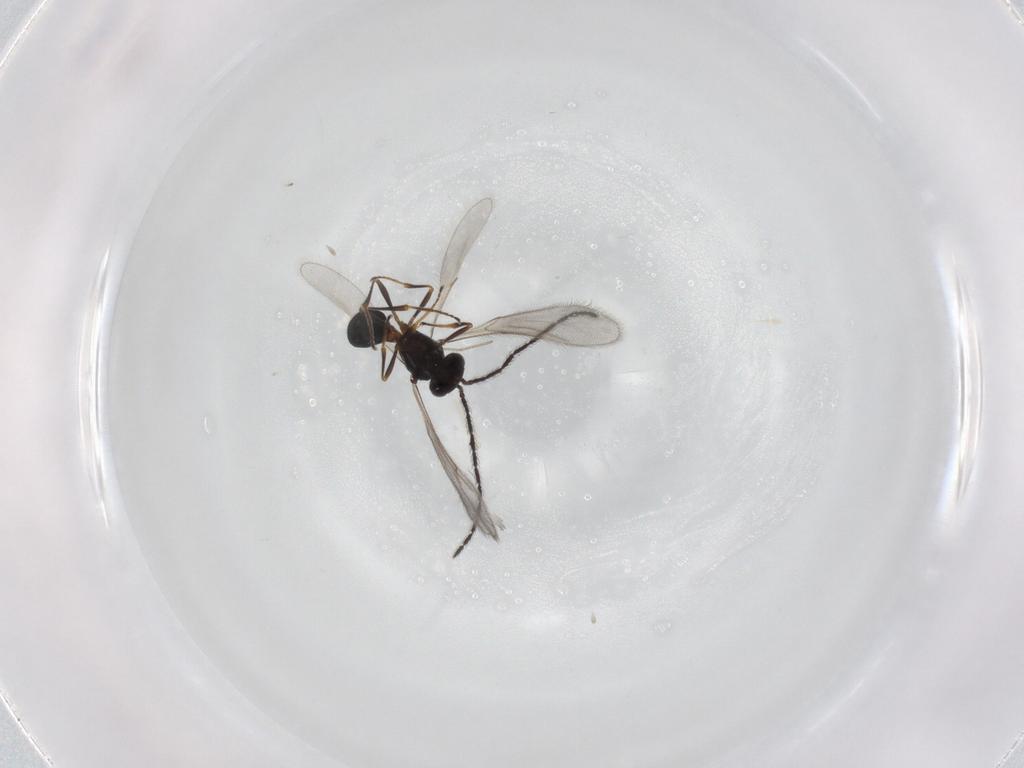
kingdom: Animalia
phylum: Arthropoda
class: Insecta
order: Hymenoptera
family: Scelionidae
